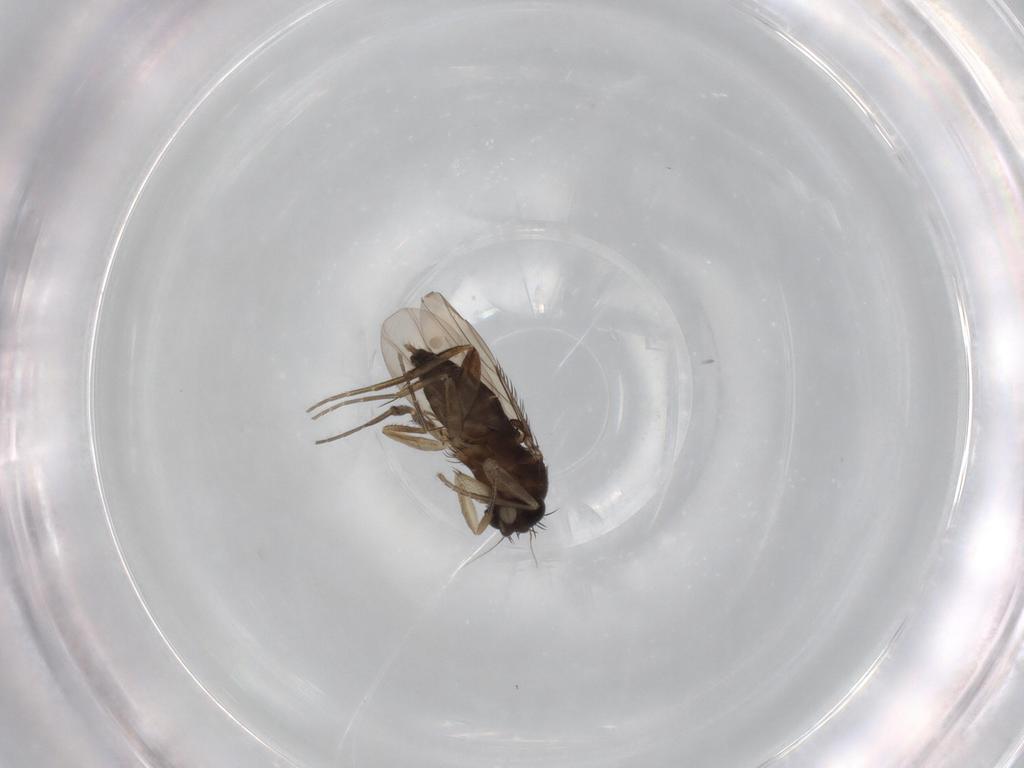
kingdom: Animalia
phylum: Arthropoda
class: Insecta
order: Diptera
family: Phoridae
